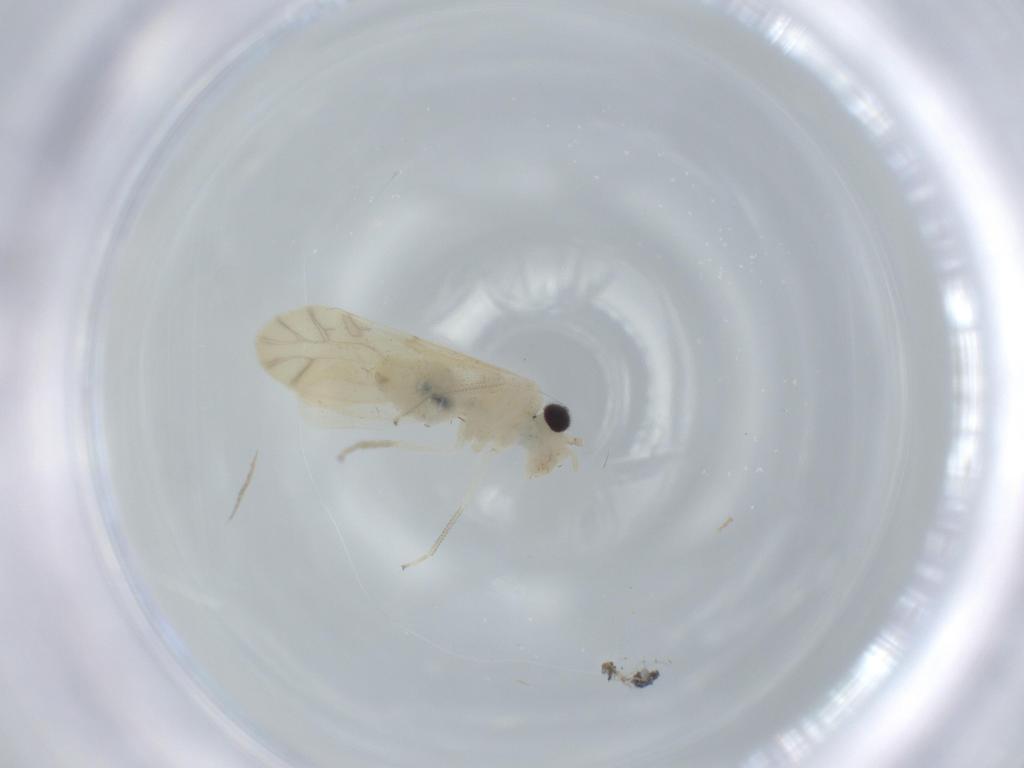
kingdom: Animalia
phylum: Arthropoda
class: Insecta
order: Psocodea
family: Caeciliusidae
